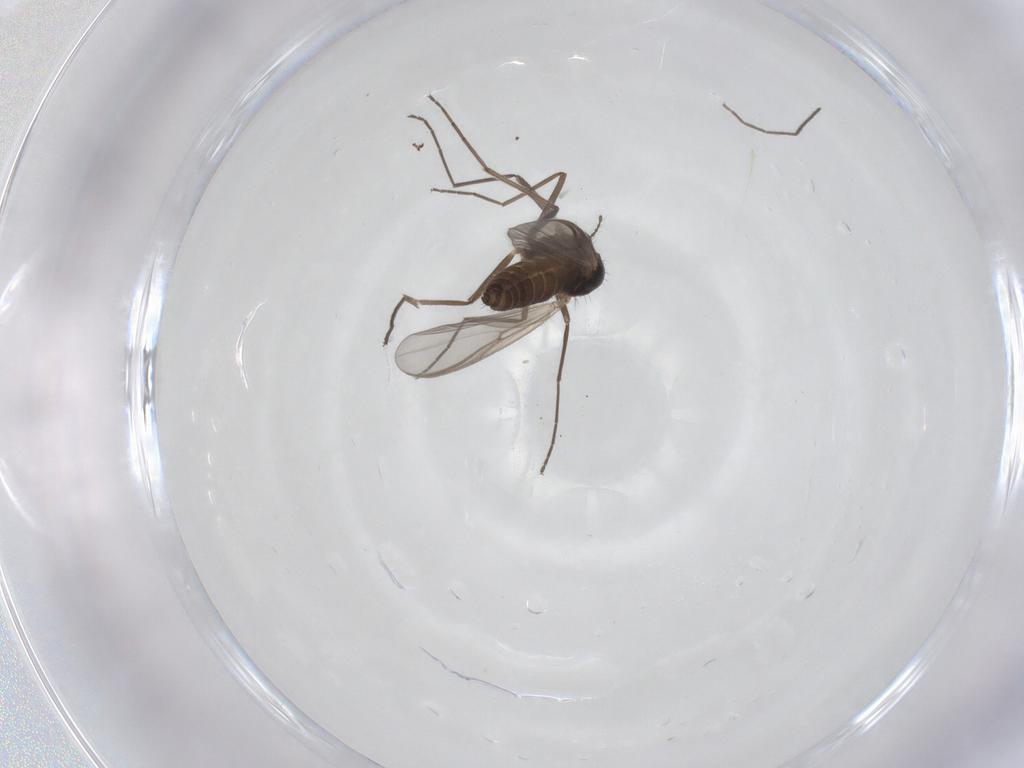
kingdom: Animalia
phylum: Arthropoda
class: Insecta
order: Diptera
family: Chironomidae
